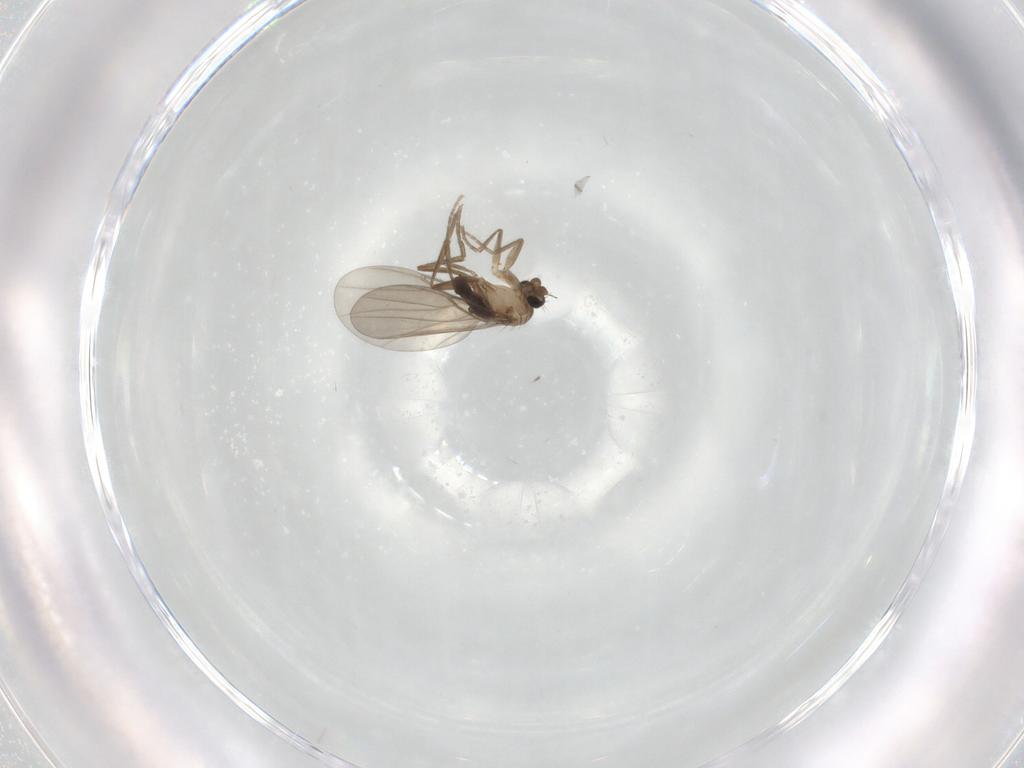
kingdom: Animalia
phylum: Arthropoda
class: Insecta
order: Diptera
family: Phoridae
